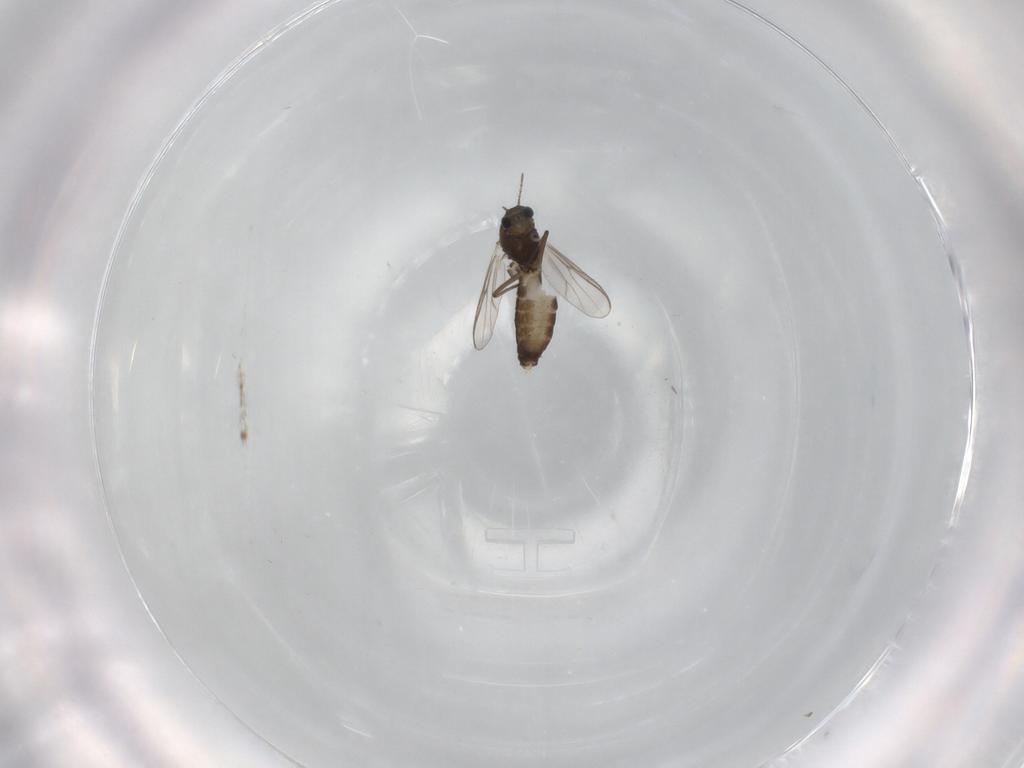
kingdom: Animalia
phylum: Arthropoda
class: Insecta
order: Diptera
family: Chironomidae
